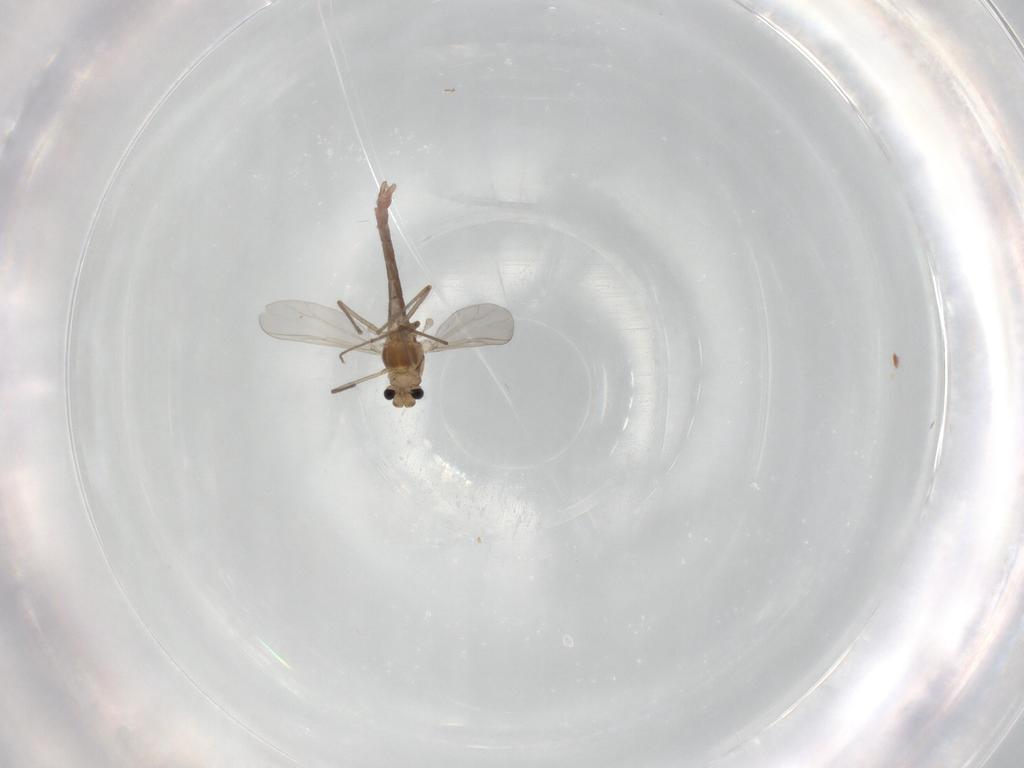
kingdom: Animalia
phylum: Arthropoda
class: Insecta
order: Diptera
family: Chironomidae
